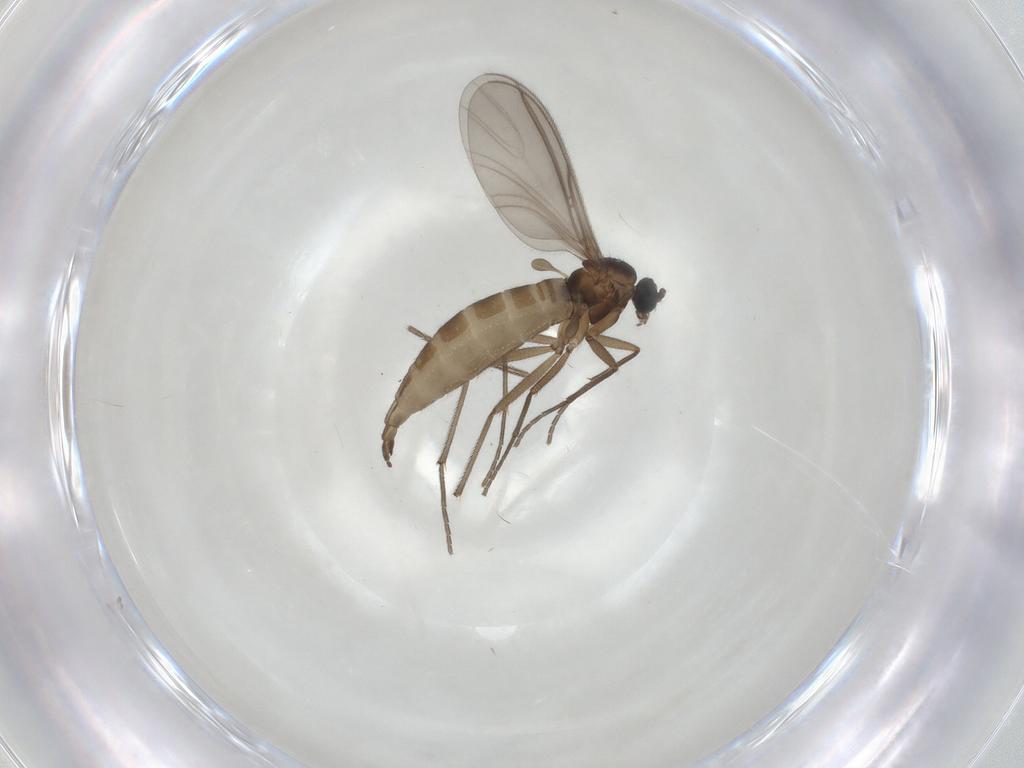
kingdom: Animalia
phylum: Arthropoda
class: Insecta
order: Diptera
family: Sciaridae
